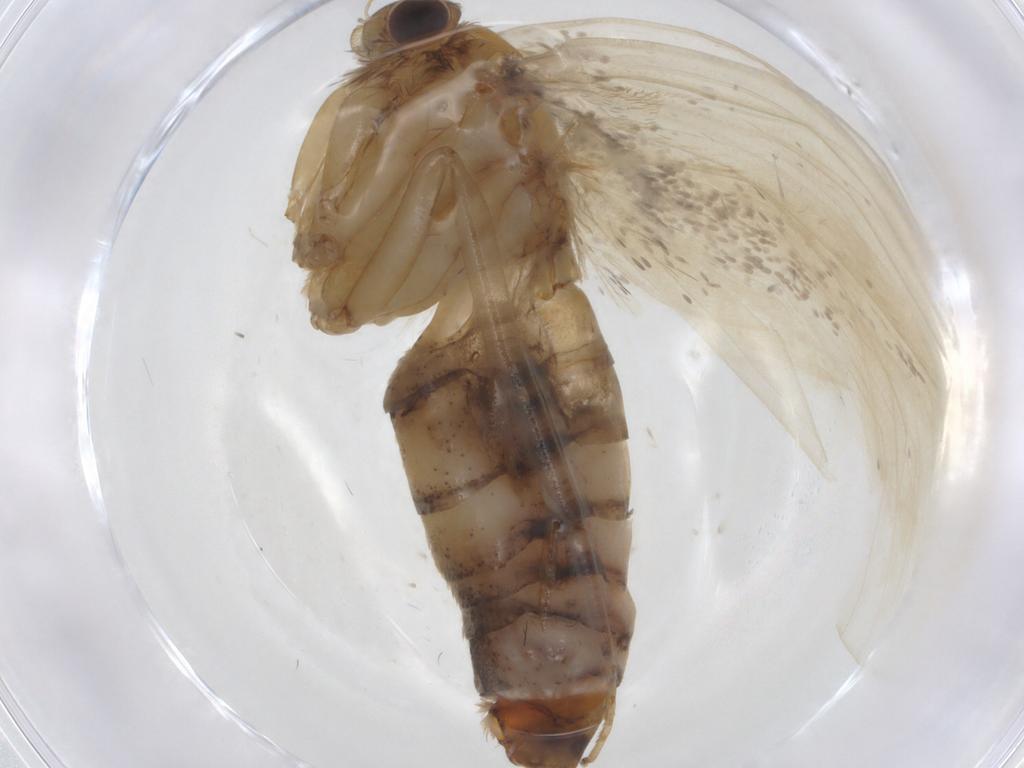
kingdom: Animalia
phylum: Arthropoda
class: Insecta
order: Lepidoptera
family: Tineidae
